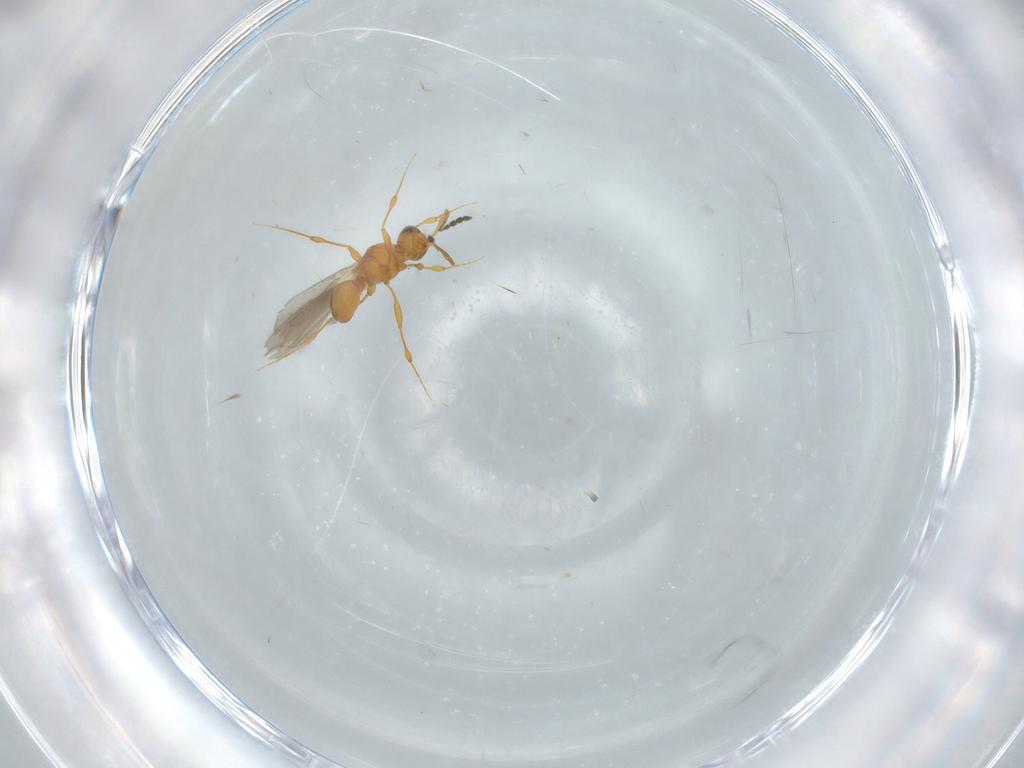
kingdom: Animalia
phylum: Arthropoda
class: Insecta
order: Hymenoptera
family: Platygastridae
